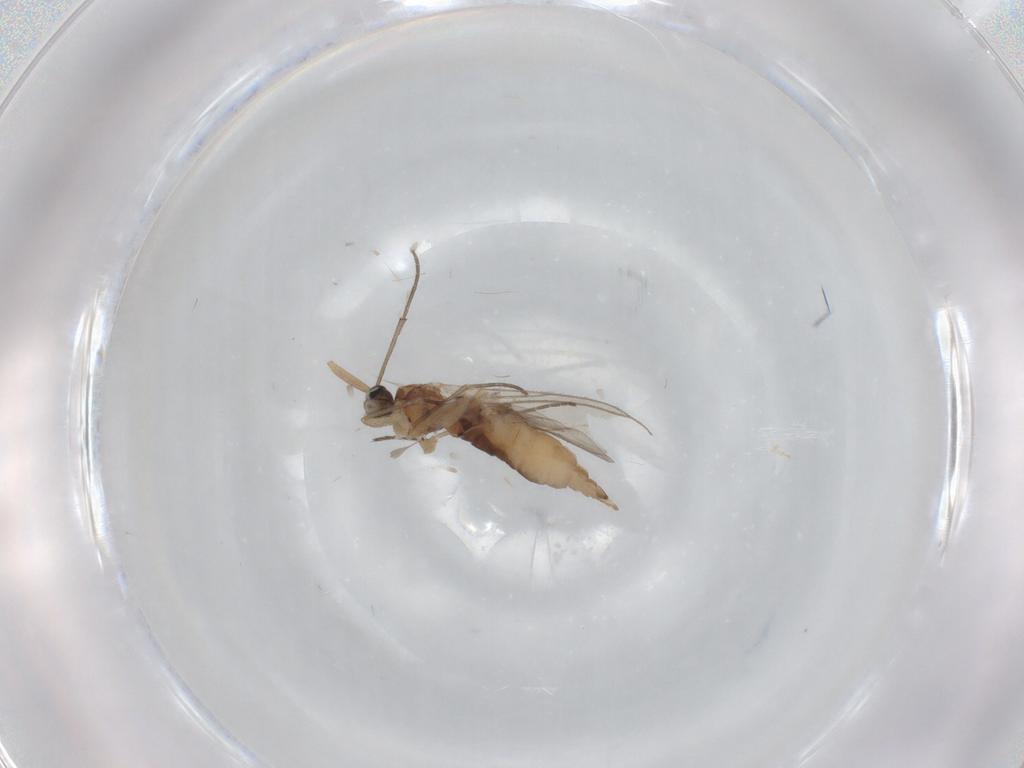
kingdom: Animalia
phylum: Arthropoda
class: Insecta
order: Diptera
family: Sciaridae
